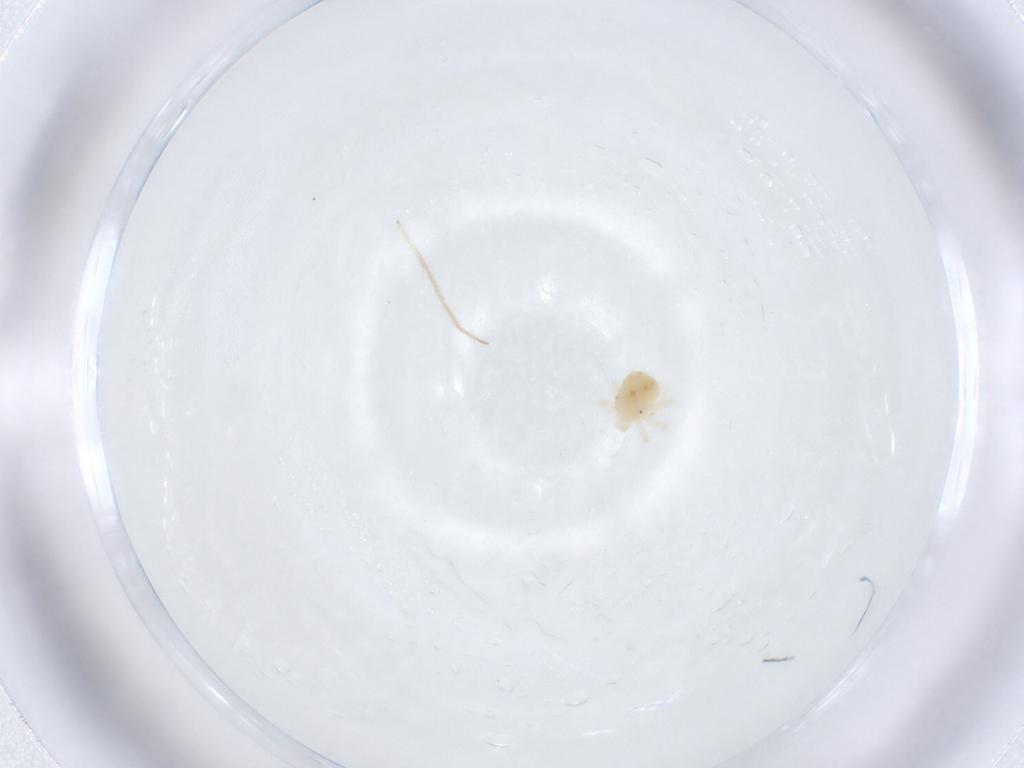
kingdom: Animalia
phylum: Arthropoda
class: Arachnida
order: Trombidiformes
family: Anystidae
